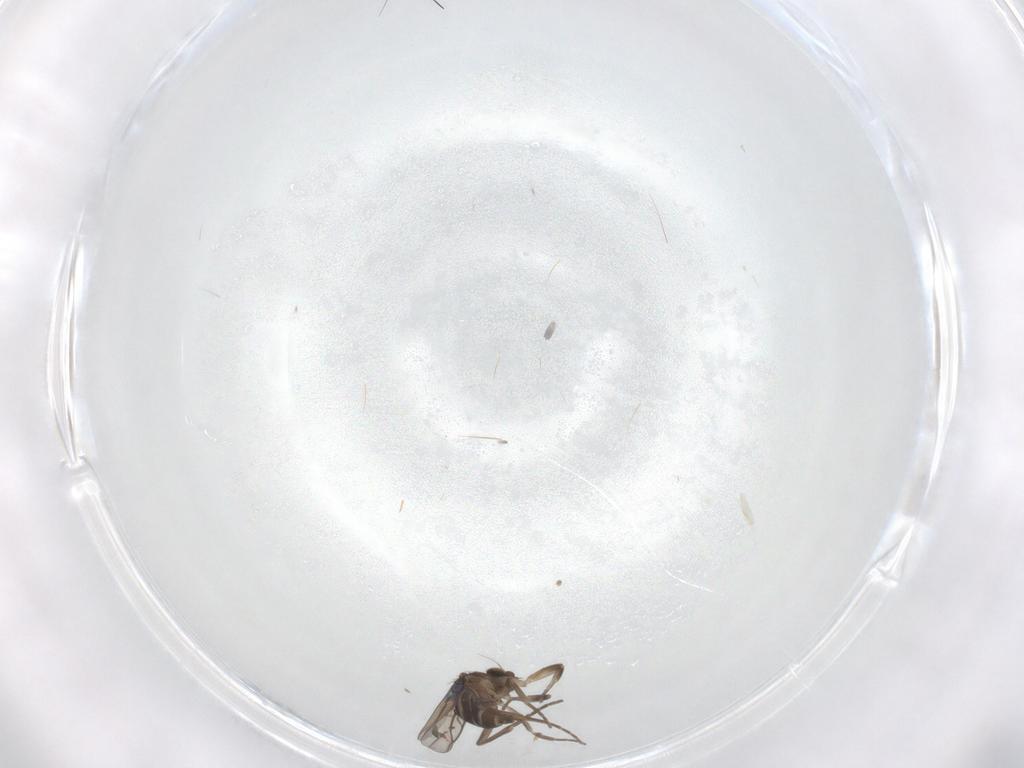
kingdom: Animalia
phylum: Arthropoda
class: Insecta
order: Diptera
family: Phoridae
